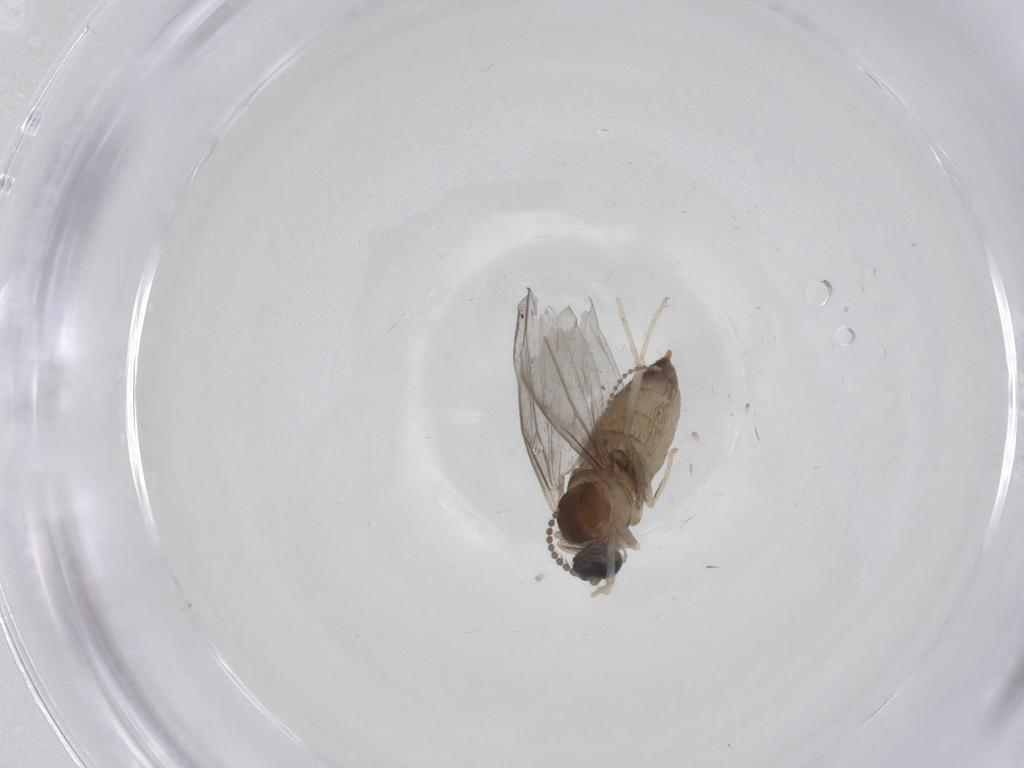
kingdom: Animalia
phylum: Arthropoda
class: Insecta
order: Diptera
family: Cecidomyiidae
